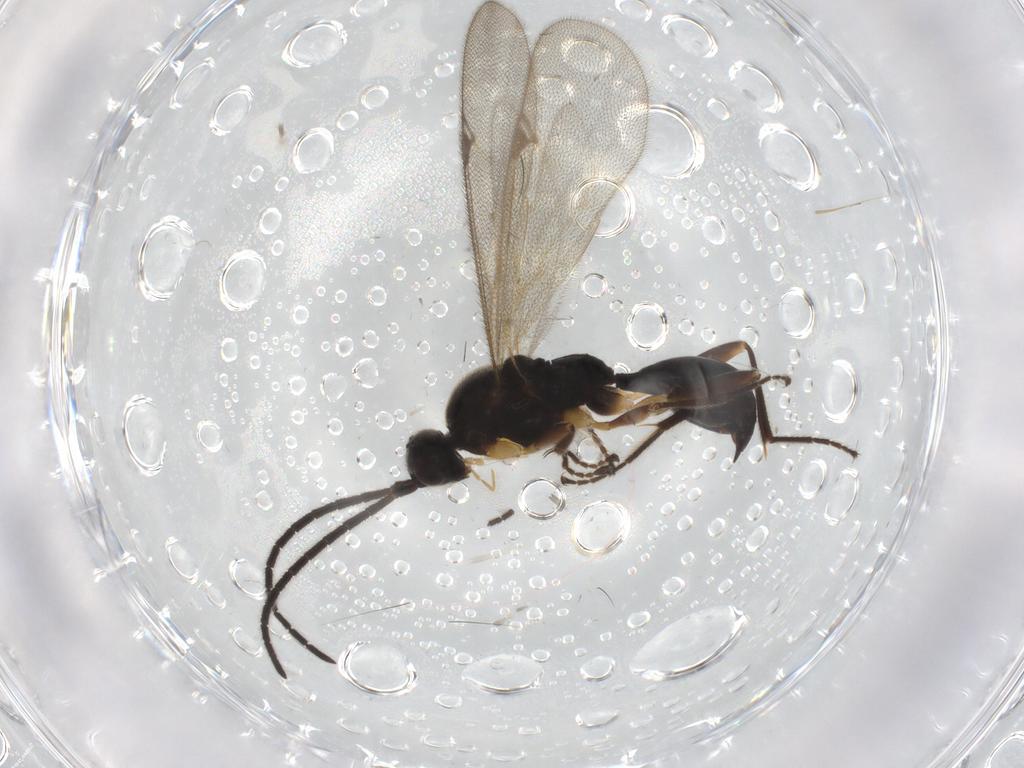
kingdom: Animalia
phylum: Arthropoda
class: Insecta
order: Hymenoptera
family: Proctotrupidae
